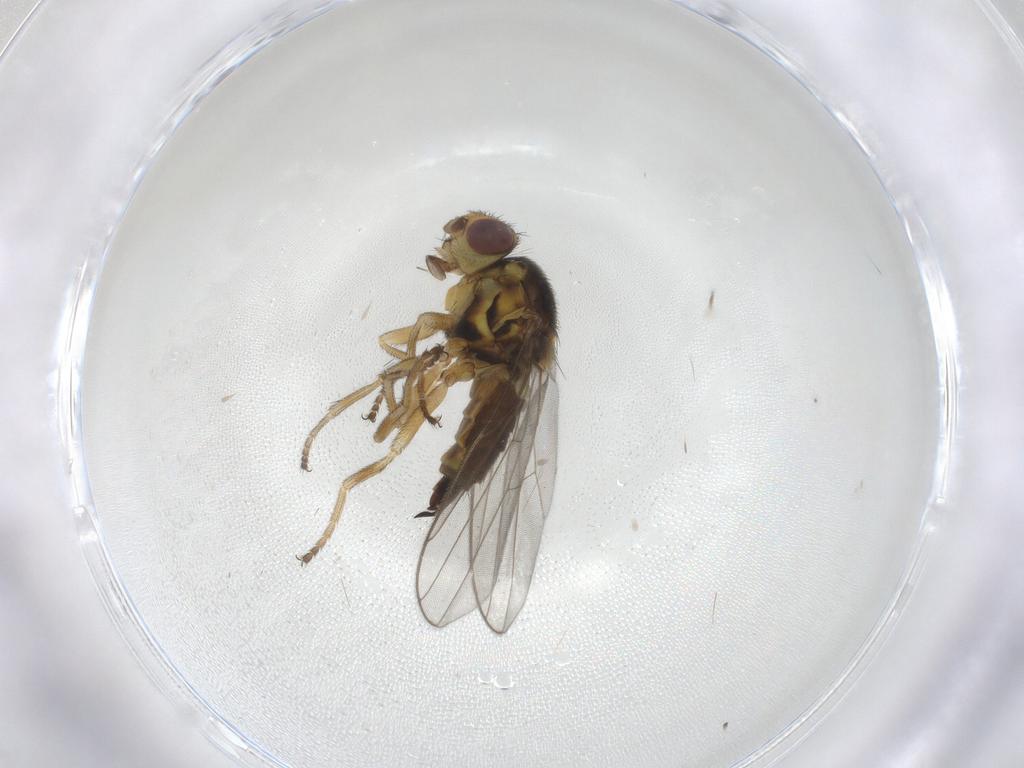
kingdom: Animalia
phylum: Arthropoda
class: Insecta
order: Diptera
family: Chloropidae
